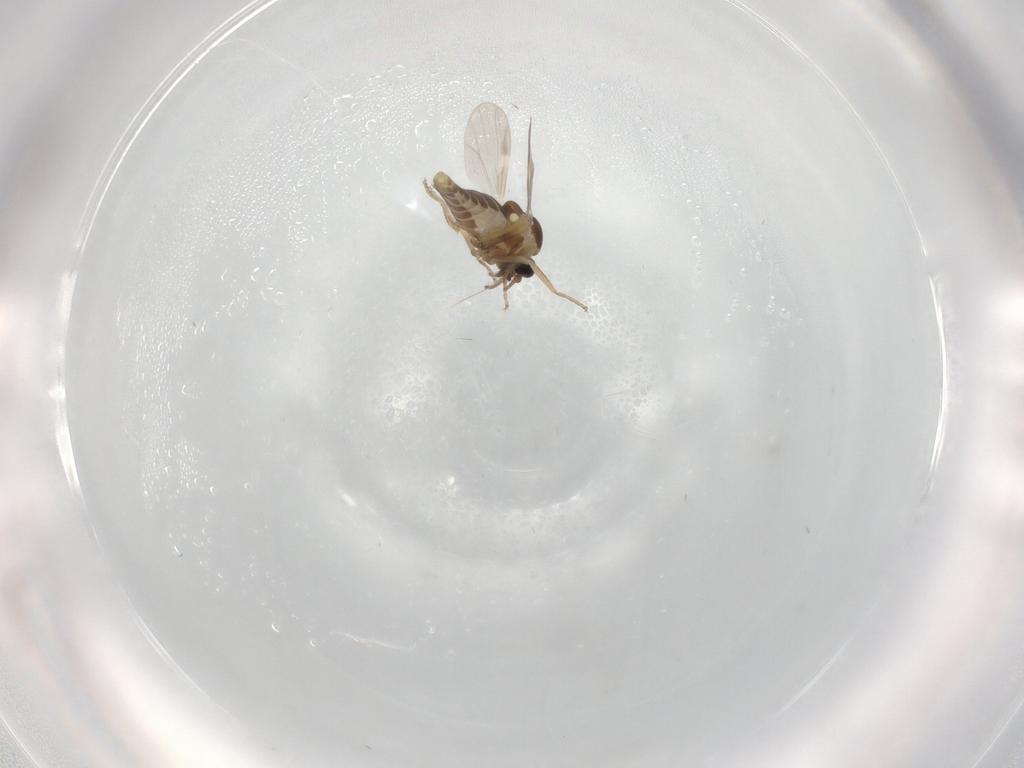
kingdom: Animalia
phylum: Arthropoda
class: Insecta
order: Diptera
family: Ceratopogonidae
